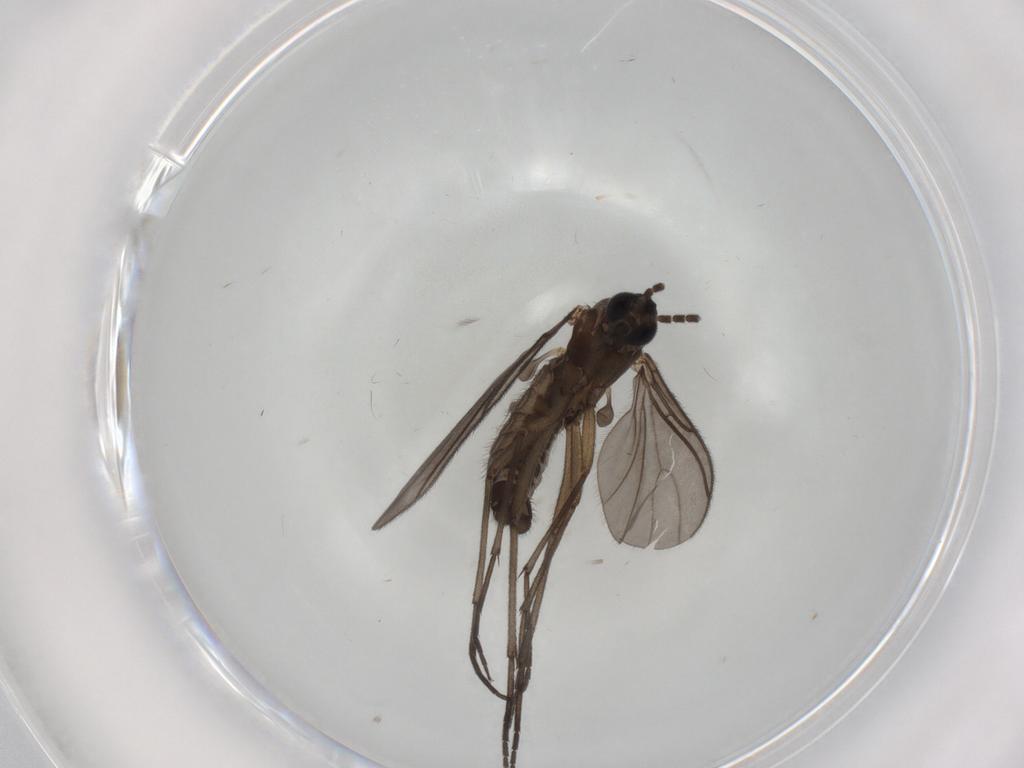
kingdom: Animalia
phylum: Arthropoda
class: Insecta
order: Diptera
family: Sciaridae
